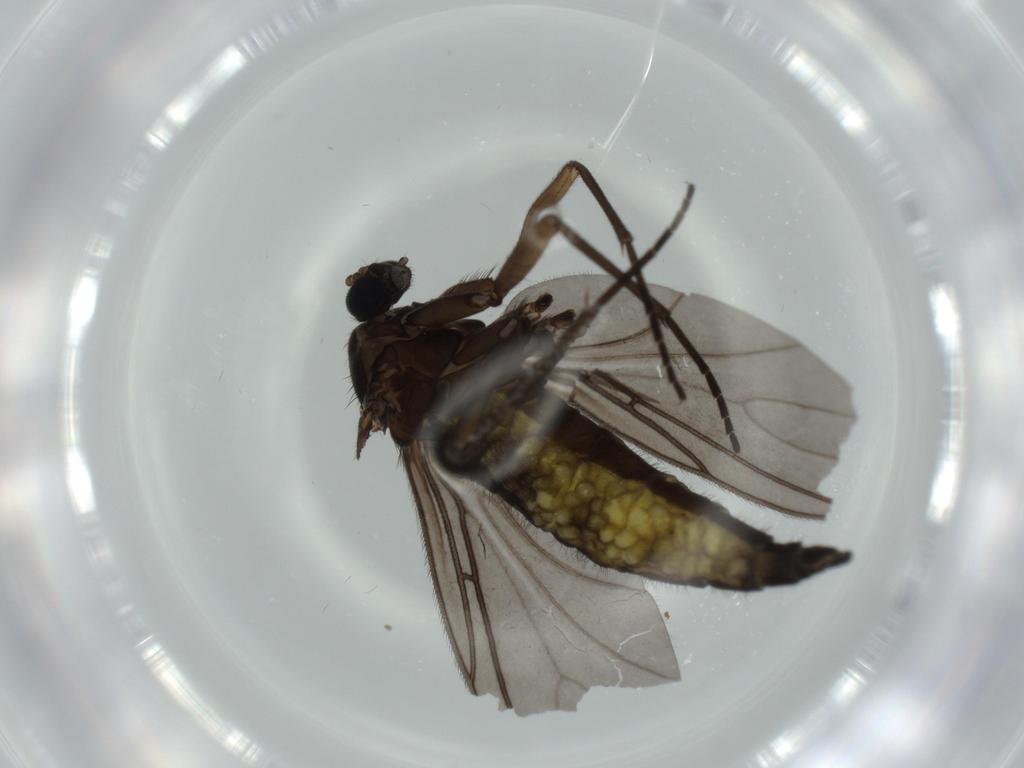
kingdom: Animalia
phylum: Arthropoda
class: Insecta
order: Diptera
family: Sciaridae
